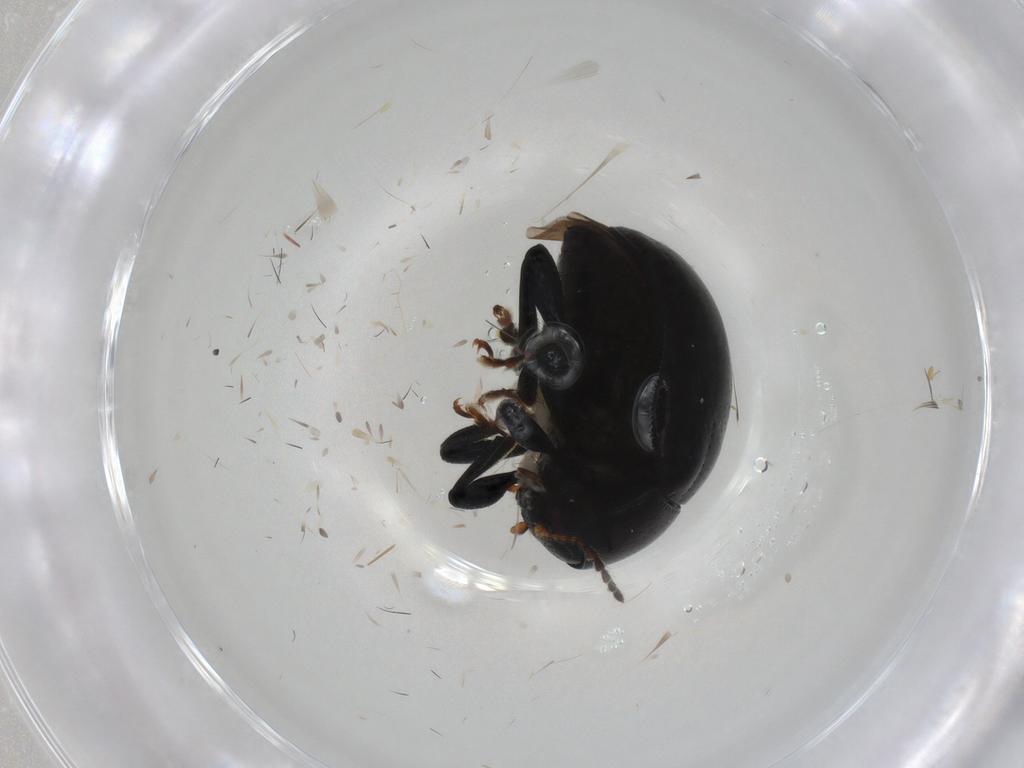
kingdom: Animalia
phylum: Arthropoda
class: Insecta
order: Coleoptera
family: Chrysomelidae
